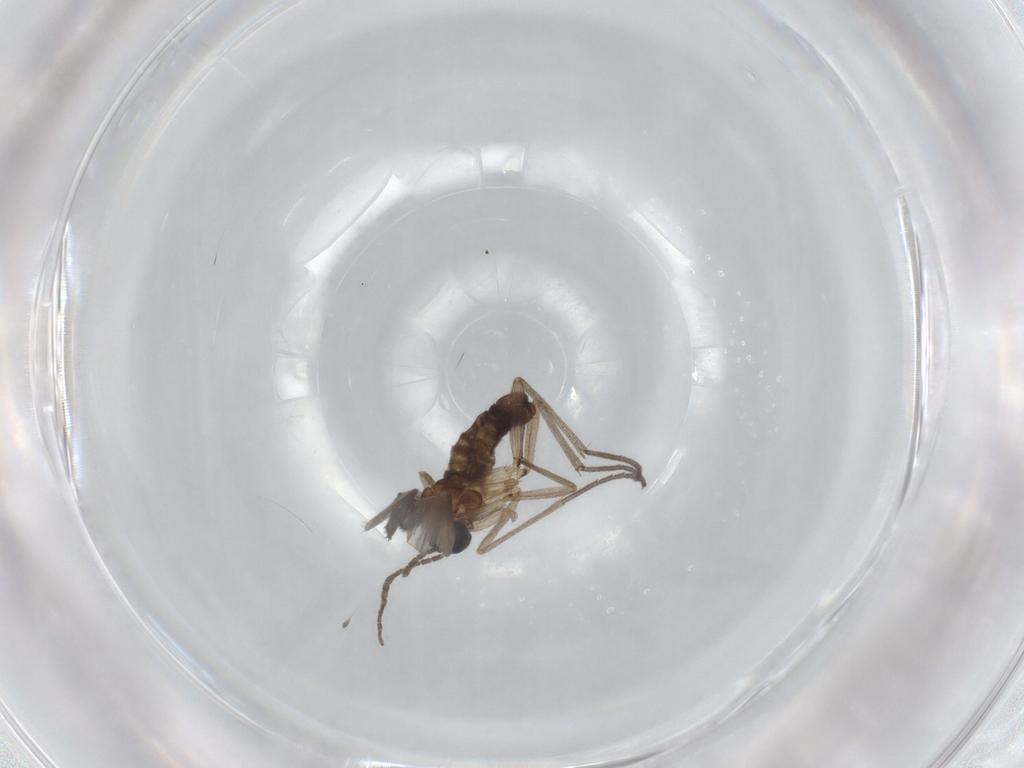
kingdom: Animalia
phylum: Arthropoda
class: Insecta
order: Diptera
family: Sciaridae
